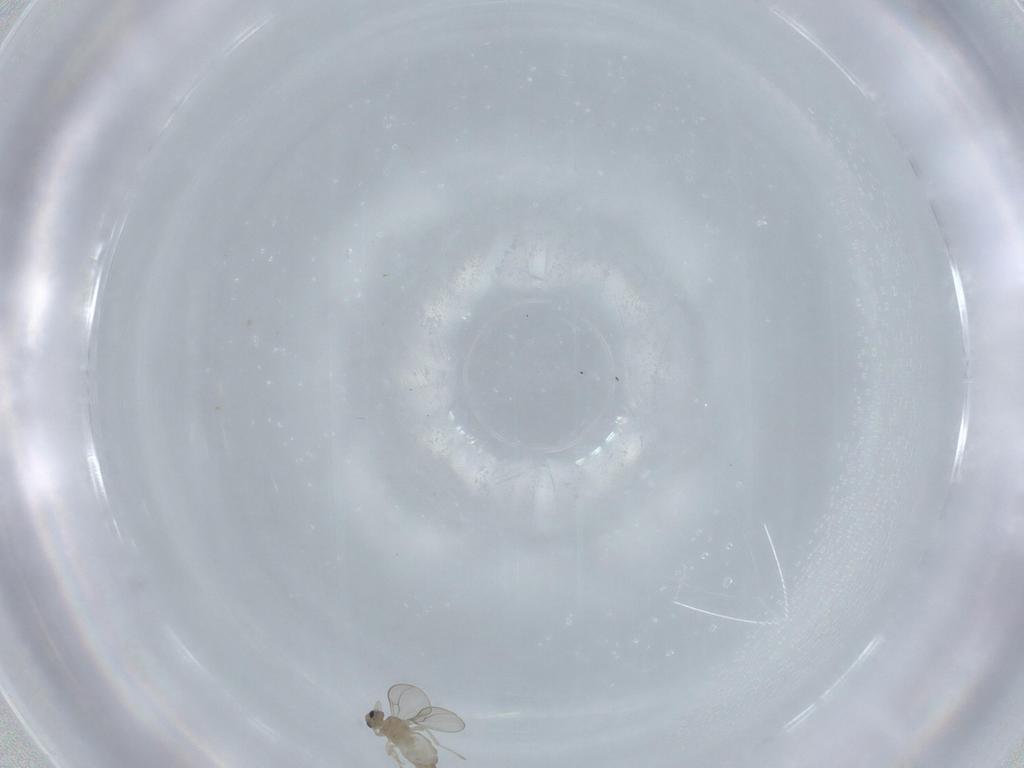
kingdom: Animalia
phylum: Arthropoda
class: Insecta
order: Diptera
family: Cecidomyiidae
